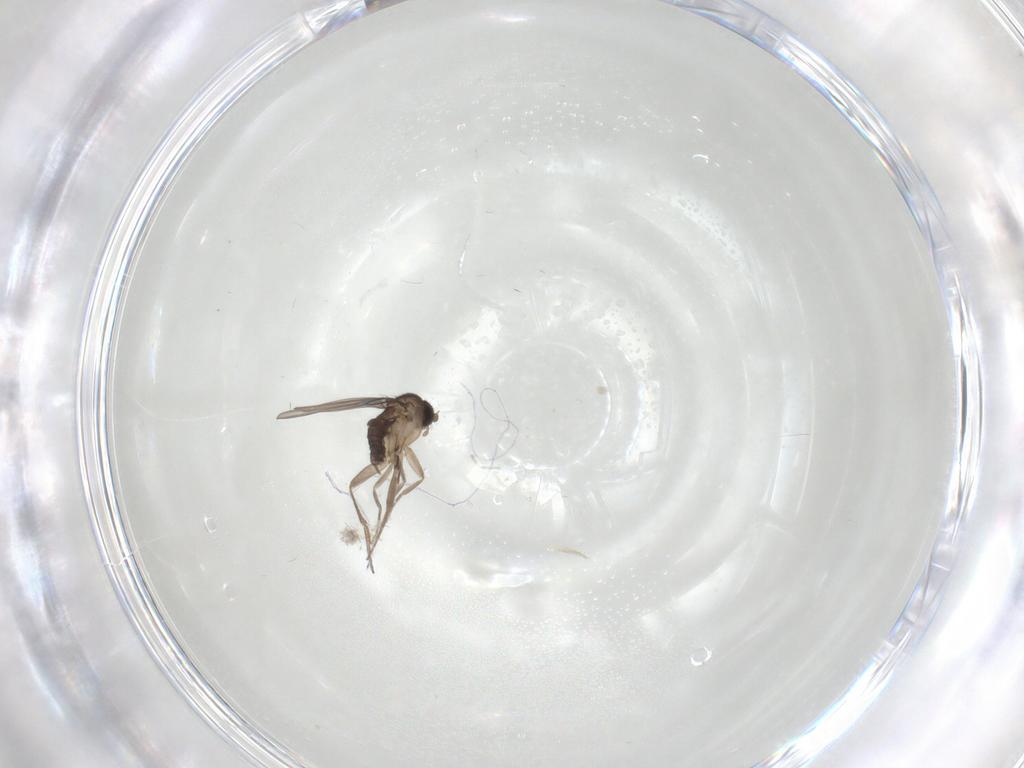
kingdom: Animalia
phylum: Arthropoda
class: Insecta
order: Diptera
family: Phoridae
